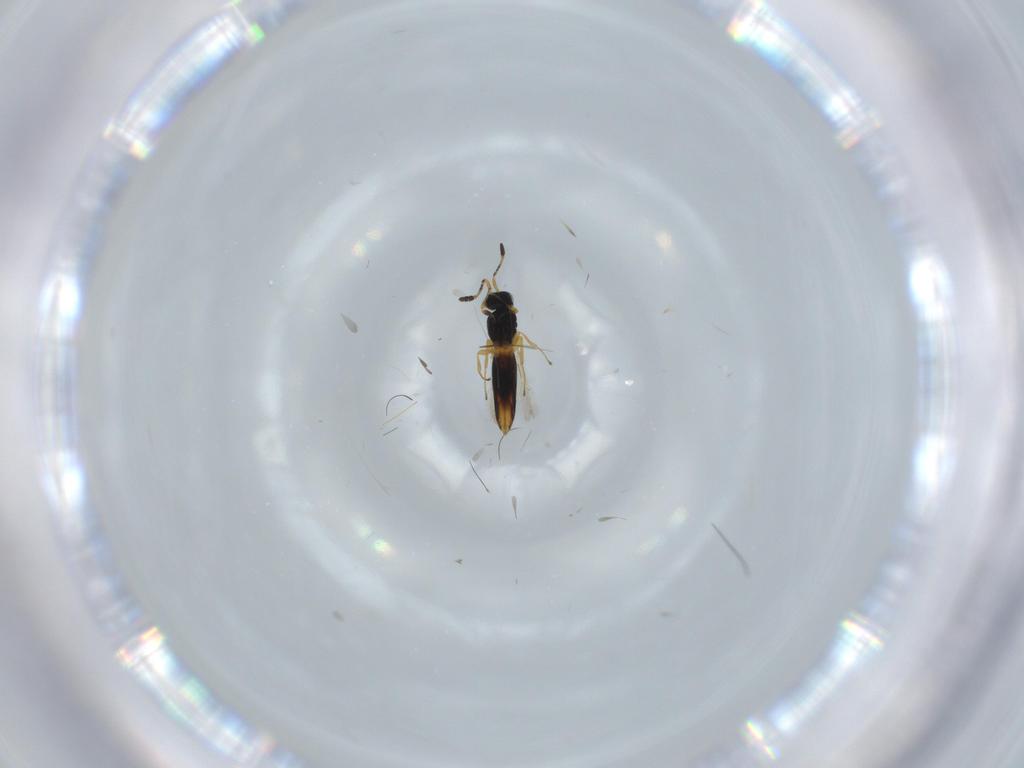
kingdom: Animalia
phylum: Arthropoda
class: Insecta
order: Hymenoptera
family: Scelionidae
